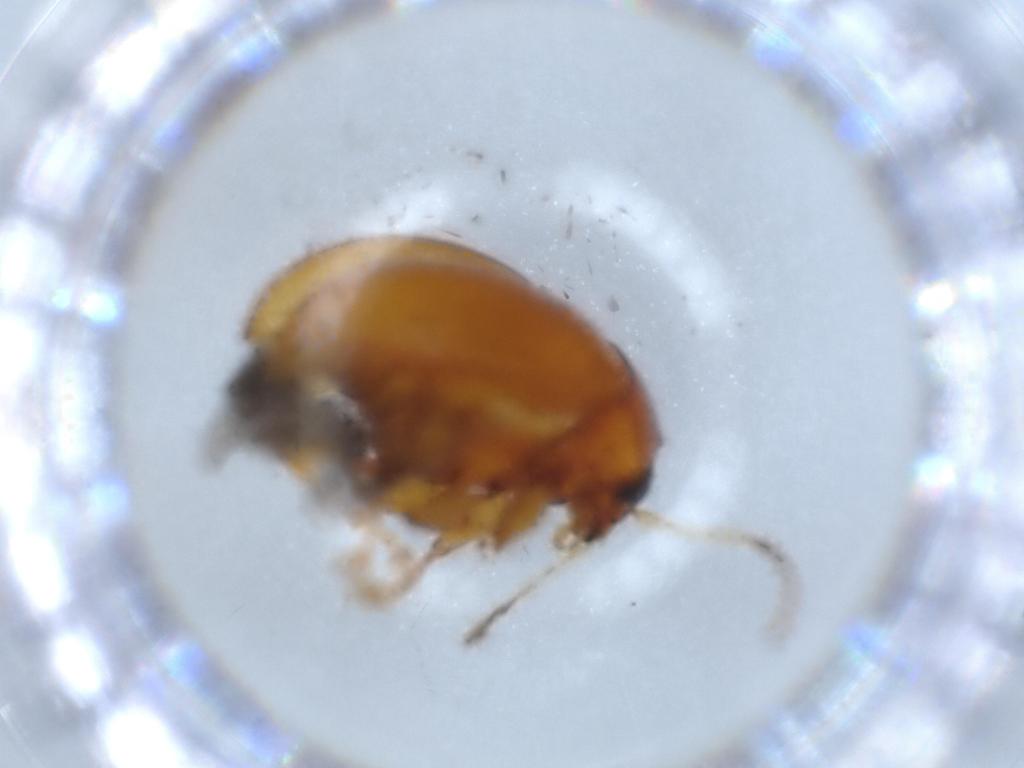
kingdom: Animalia
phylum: Arthropoda
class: Insecta
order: Coleoptera
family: Chrysomelidae
